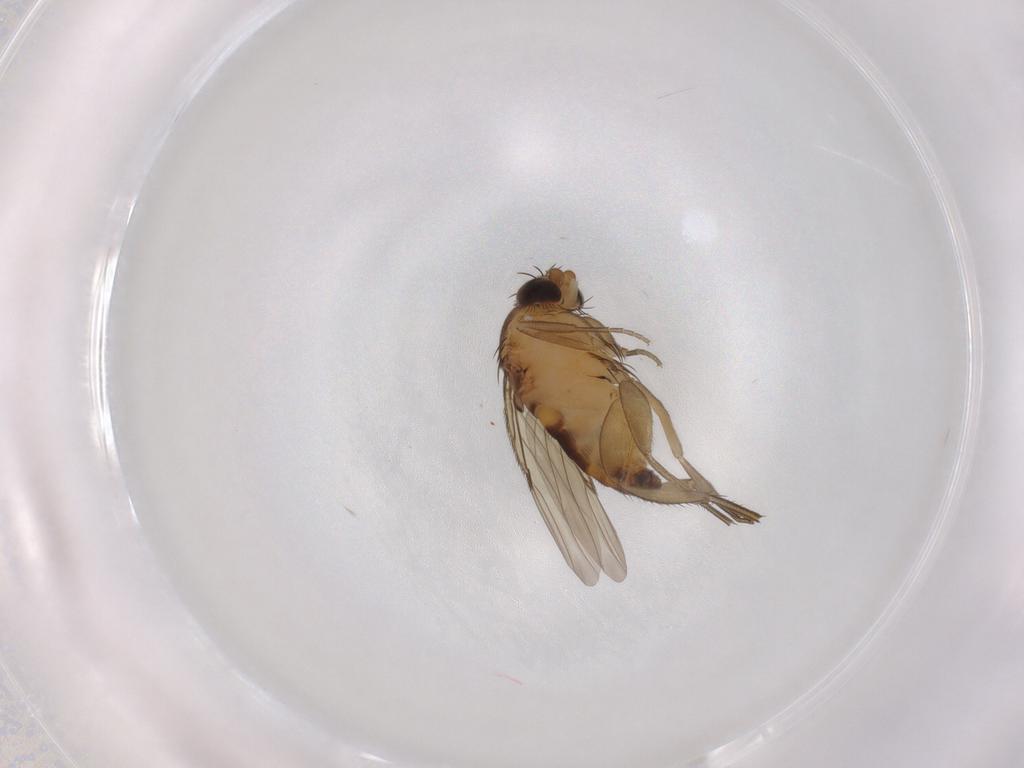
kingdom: Animalia
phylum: Arthropoda
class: Insecta
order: Diptera
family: Phoridae
